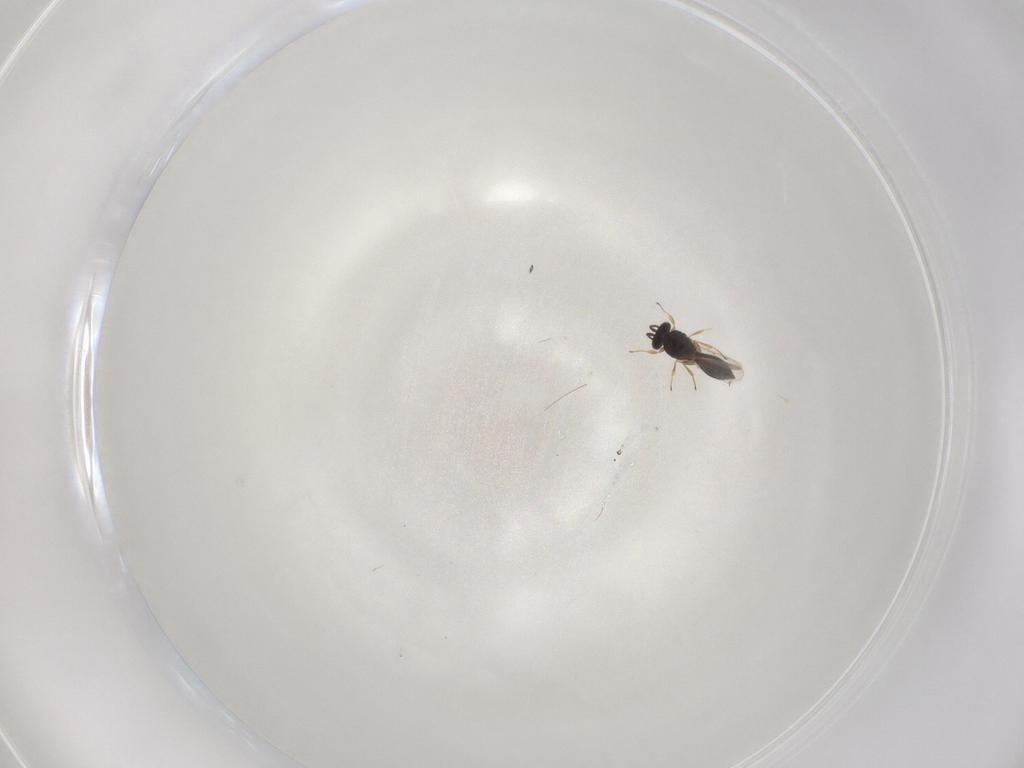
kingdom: Animalia
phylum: Arthropoda
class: Insecta
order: Hymenoptera
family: Scelionidae
